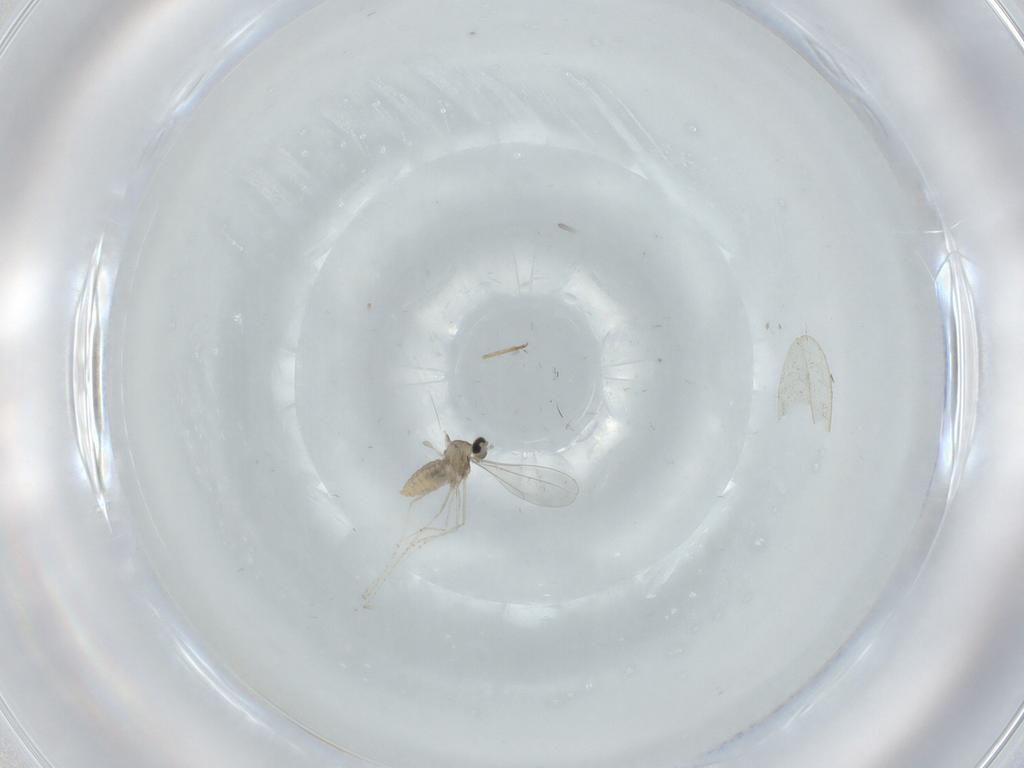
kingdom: Animalia
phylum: Arthropoda
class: Insecta
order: Diptera
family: Cecidomyiidae
